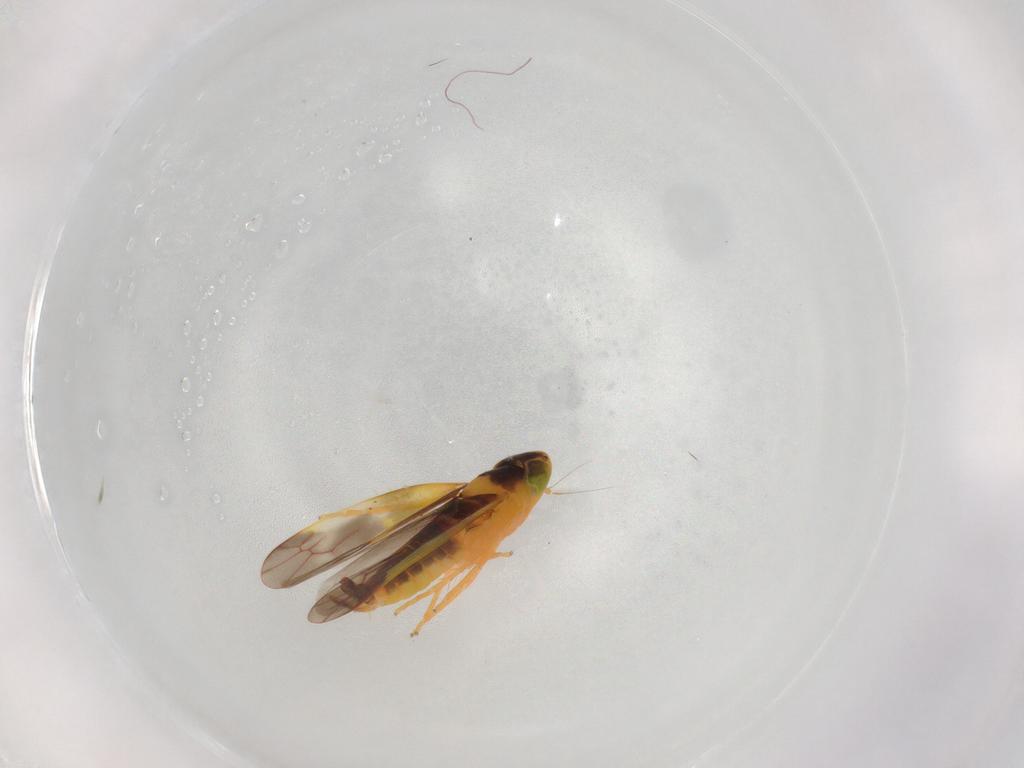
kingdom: Animalia
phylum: Arthropoda
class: Insecta
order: Hemiptera
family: Cicadellidae
